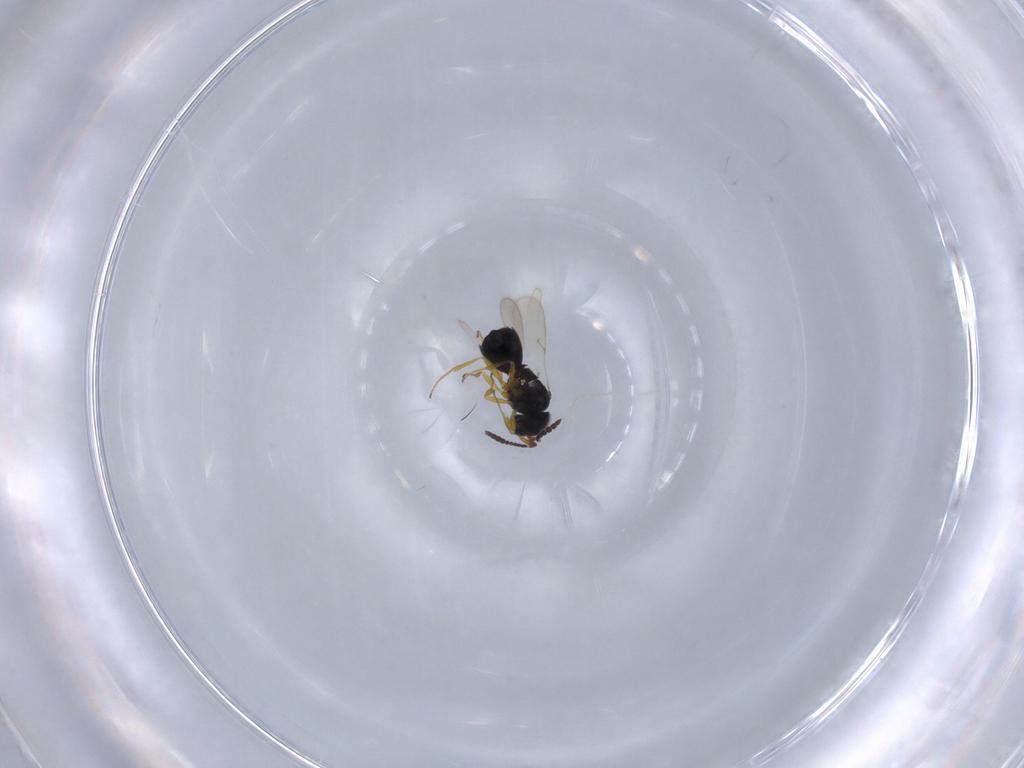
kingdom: Animalia
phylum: Arthropoda
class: Insecta
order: Hymenoptera
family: Scelionidae
